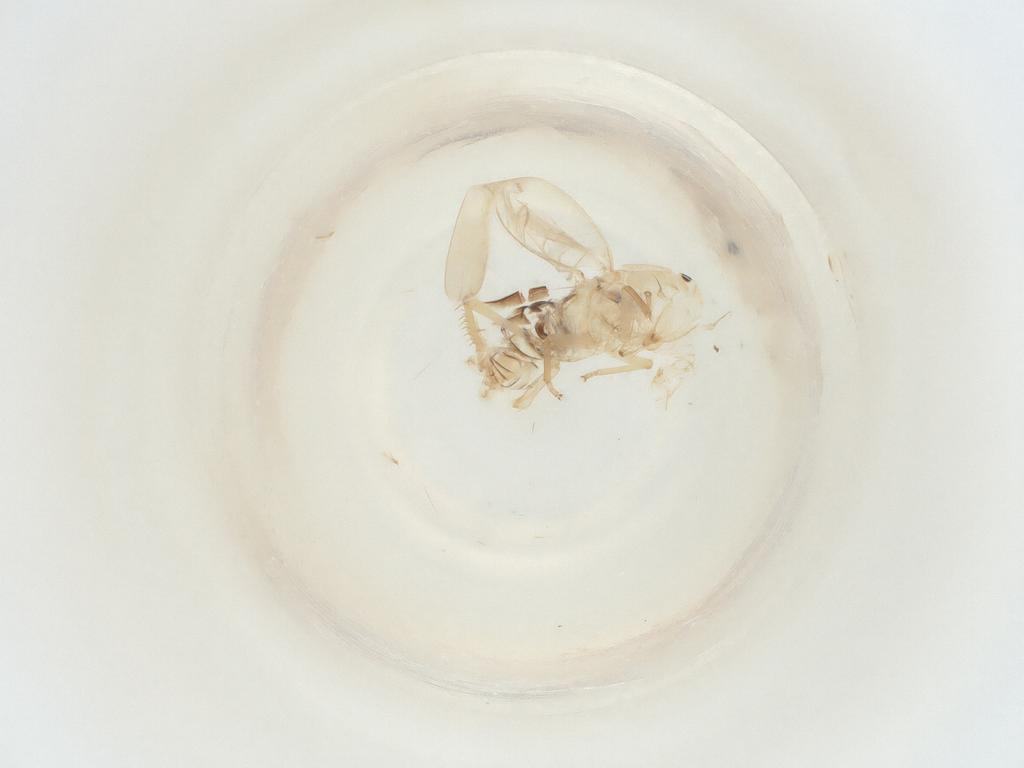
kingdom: Animalia
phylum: Arthropoda
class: Insecta
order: Hemiptera
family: Cicadellidae
